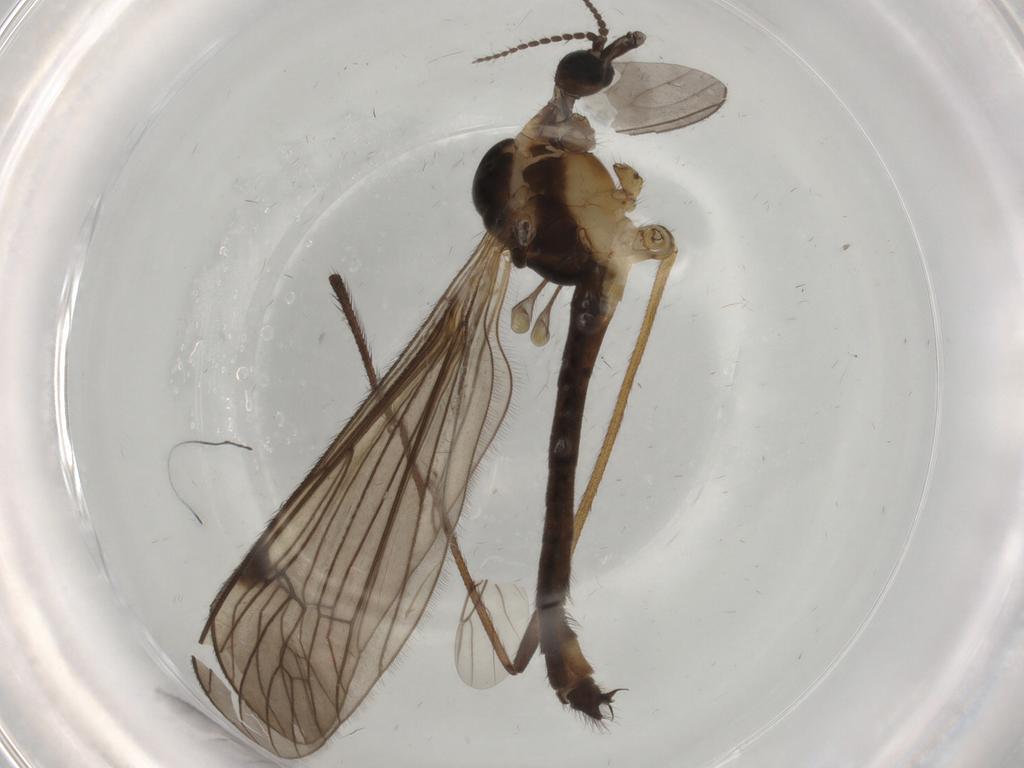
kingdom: Animalia
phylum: Arthropoda
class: Insecta
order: Diptera
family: Limoniidae
